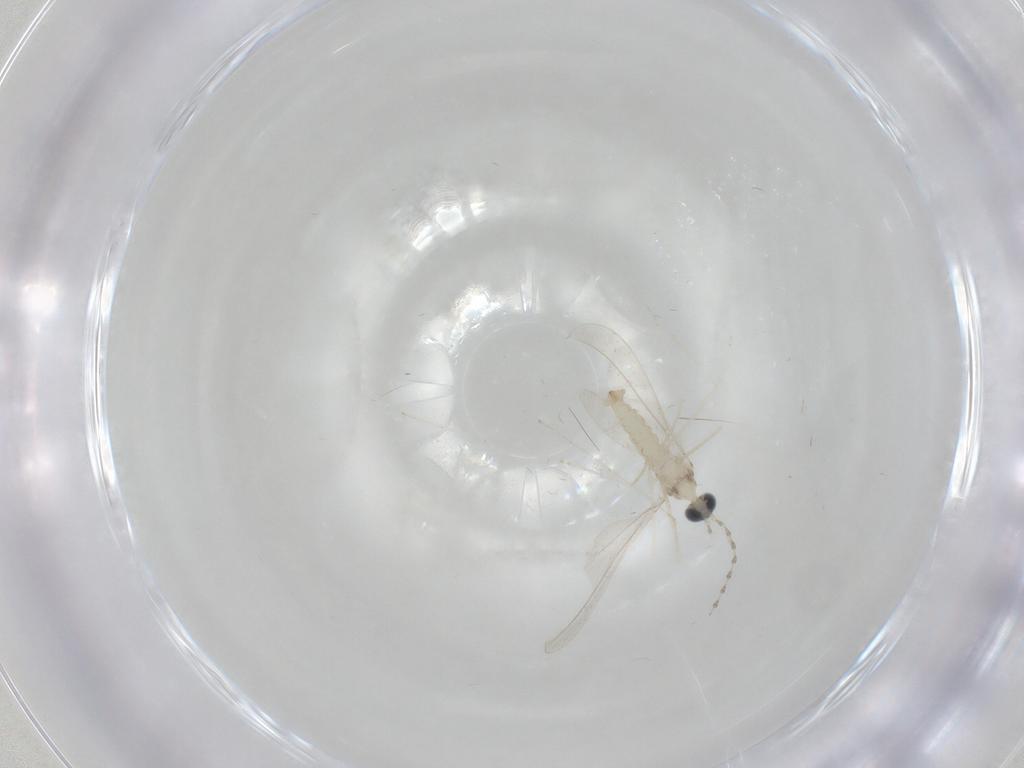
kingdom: Animalia
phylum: Arthropoda
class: Insecta
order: Diptera
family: Cecidomyiidae
